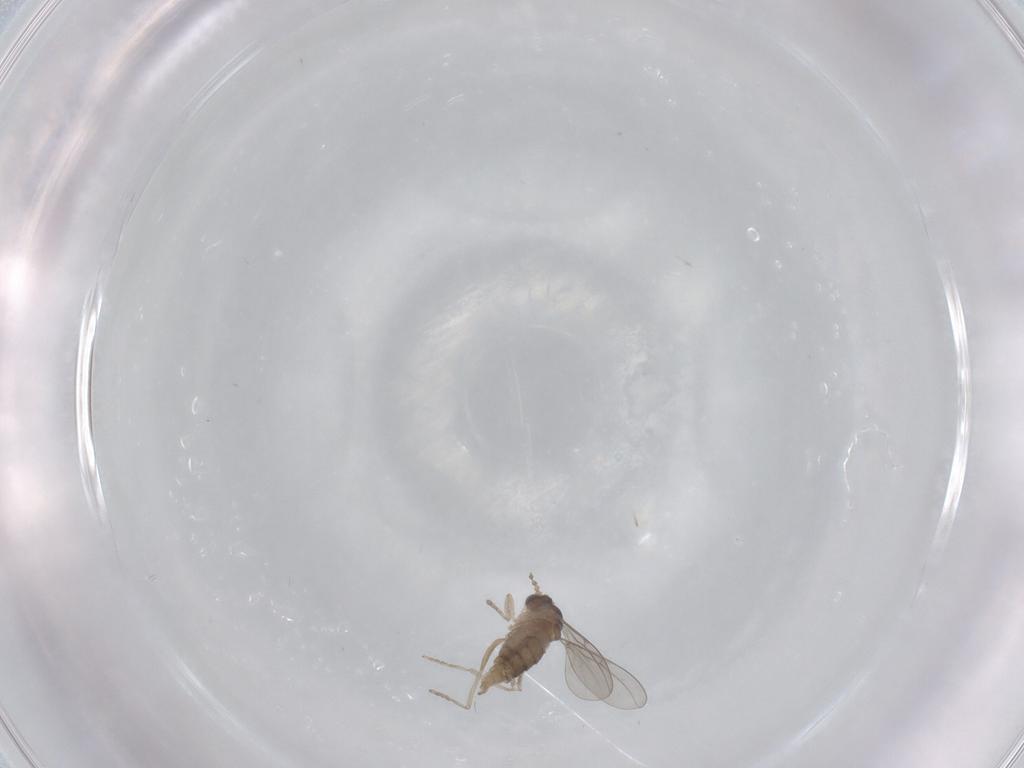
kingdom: Animalia
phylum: Arthropoda
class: Insecta
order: Diptera
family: Cecidomyiidae
